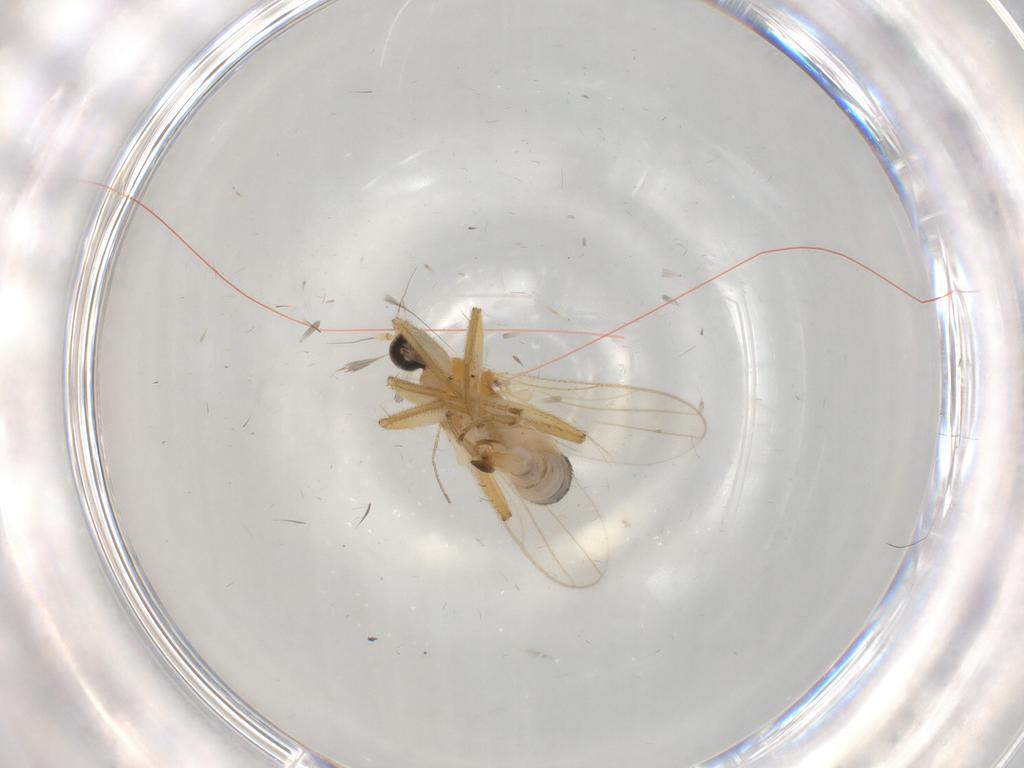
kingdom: Animalia
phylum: Arthropoda
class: Insecta
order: Diptera
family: Hybotidae
